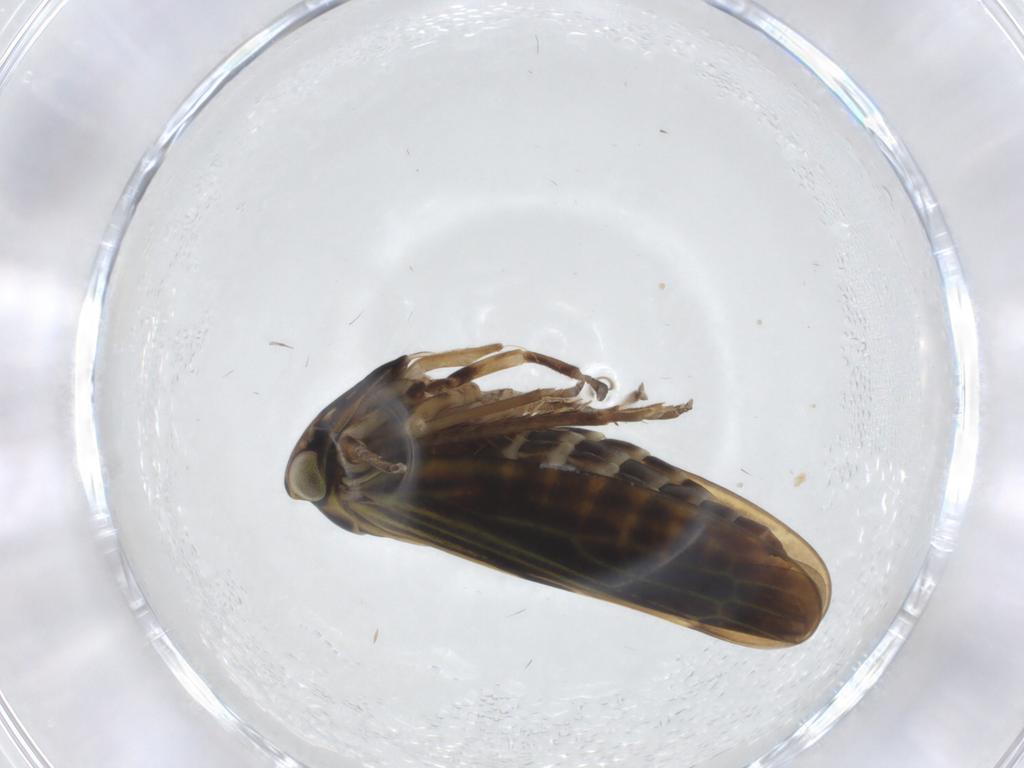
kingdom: Animalia
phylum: Arthropoda
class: Insecta
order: Hemiptera
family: Cicadellidae
